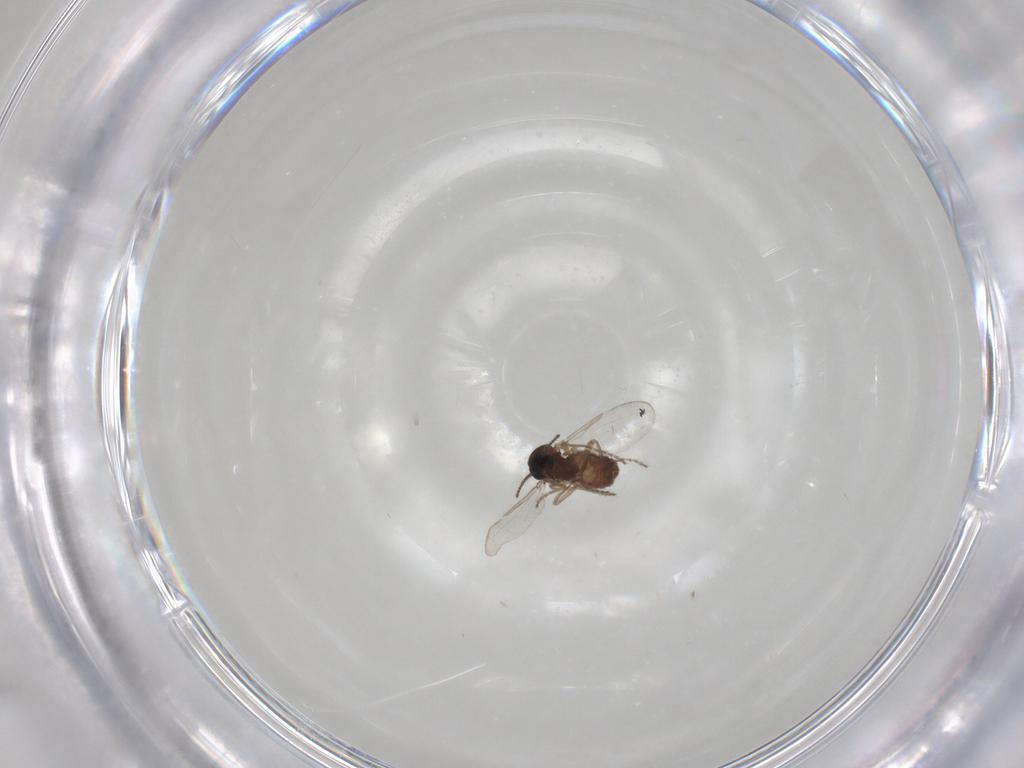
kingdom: Animalia
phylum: Arthropoda
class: Insecta
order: Diptera
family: Ceratopogonidae
